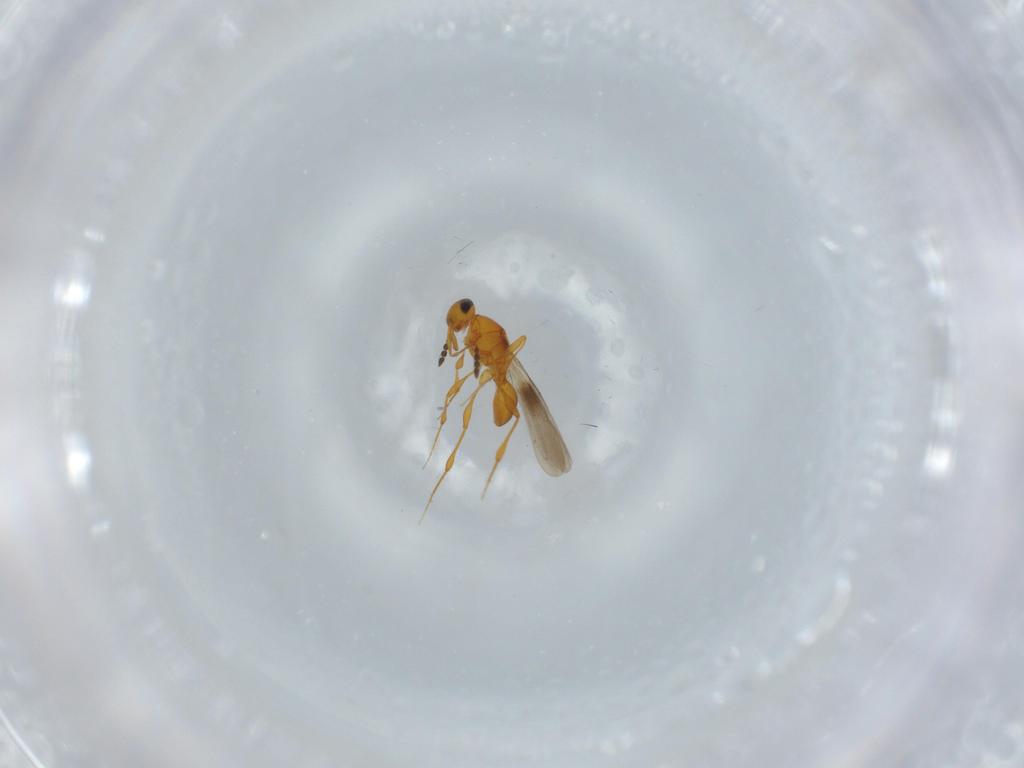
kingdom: Animalia
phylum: Arthropoda
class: Insecta
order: Hymenoptera
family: Platygastridae
